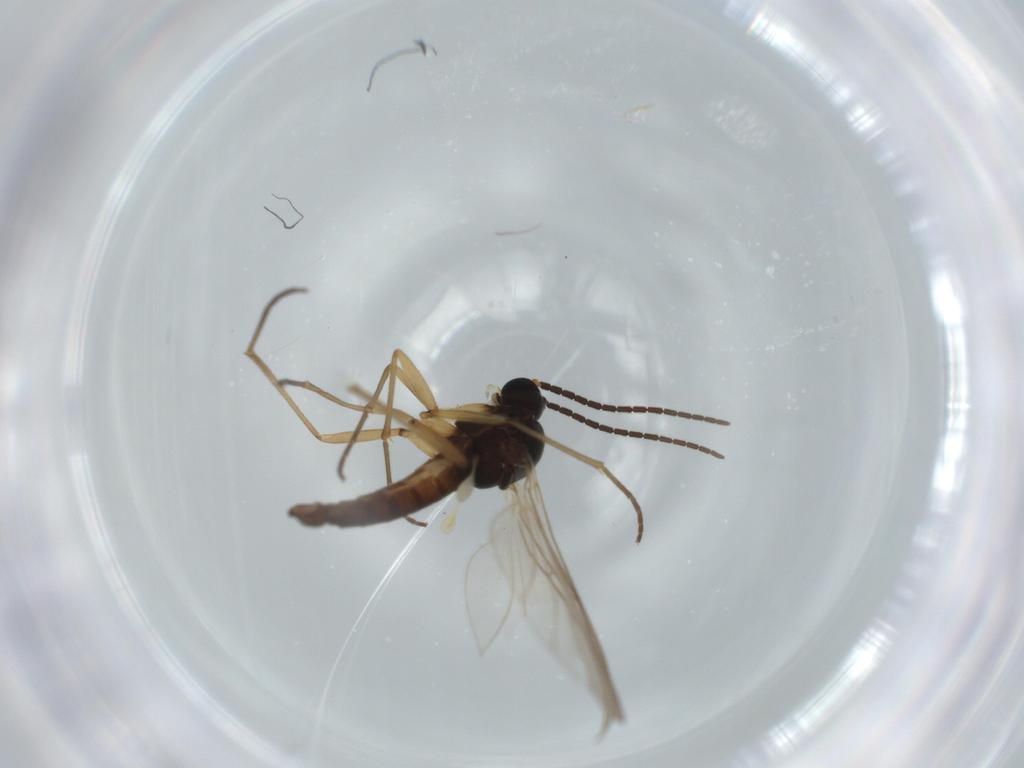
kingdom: Animalia
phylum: Arthropoda
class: Insecta
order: Diptera
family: Sciaridae
